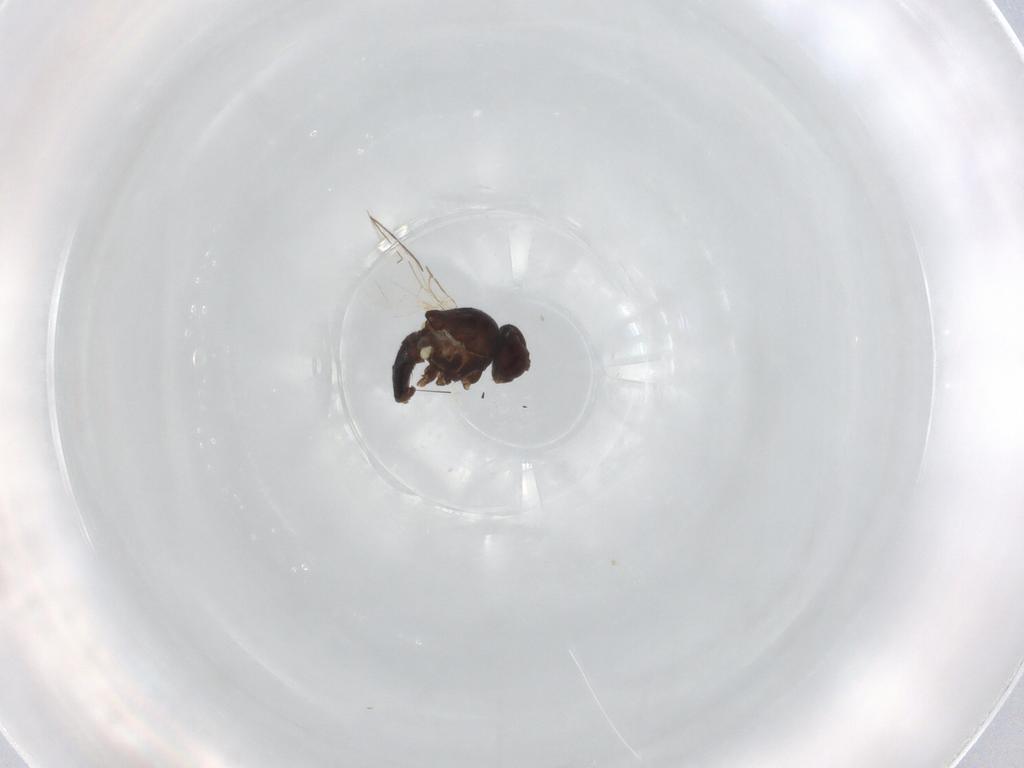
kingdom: Animalia
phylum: Arthropoda
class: Insecta
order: Diptera
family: Agromyzidae
